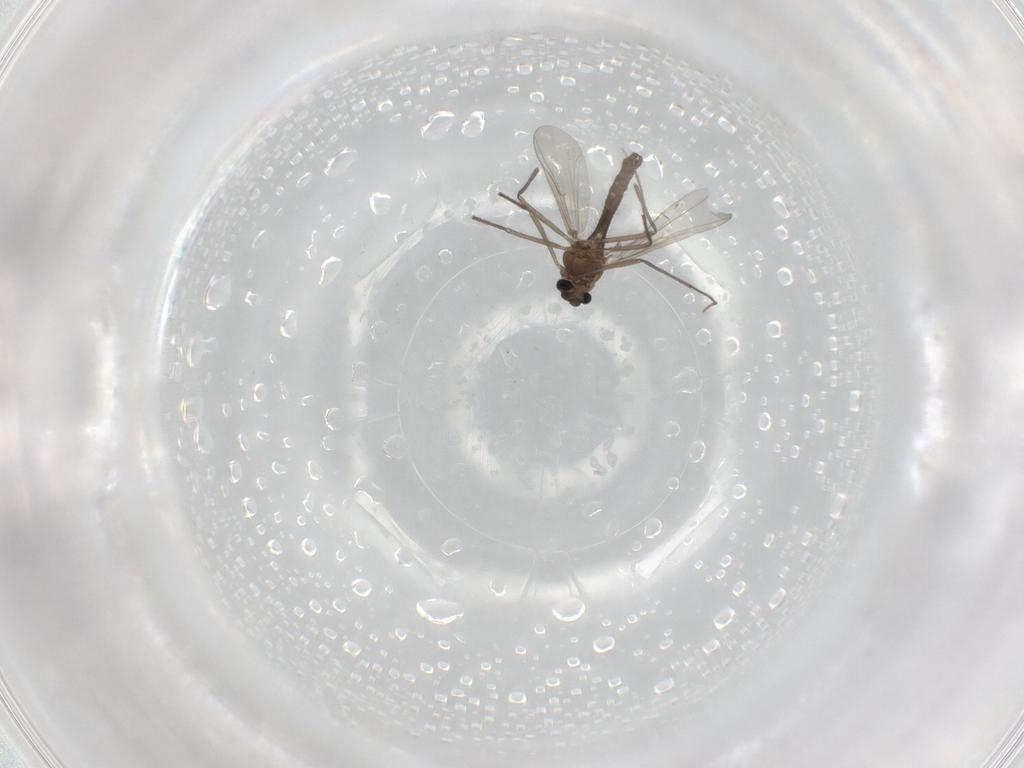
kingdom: Animalia
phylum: Arthropoda
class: Insecta
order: Diptera
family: Chironomidae
